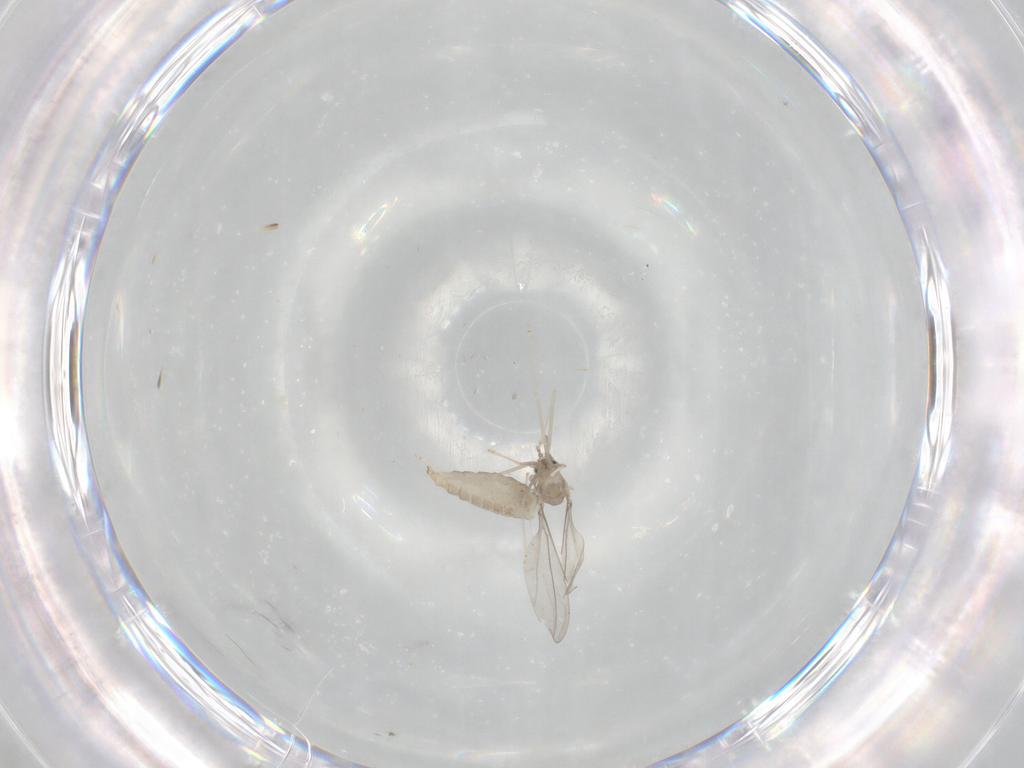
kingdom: Animalia
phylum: Arthropoda
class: Insecta
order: Diptera
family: Cecidomyiidae
